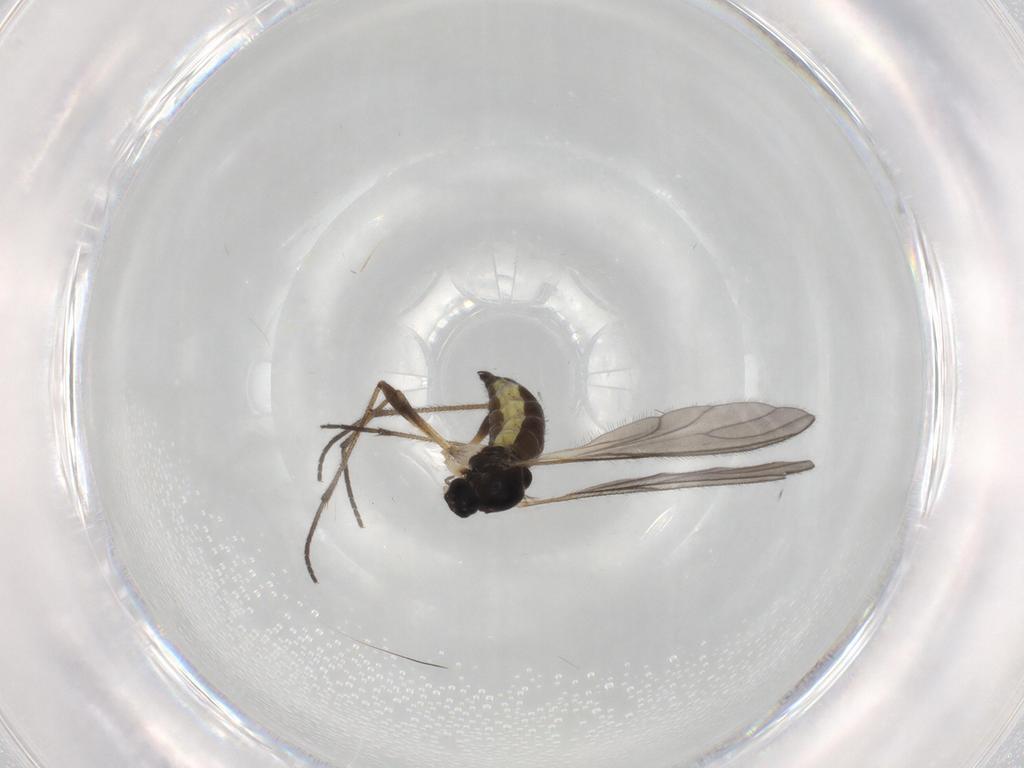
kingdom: Animalia
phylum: Arthropoda
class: Insecta
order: Diptera
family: Sciaridae
